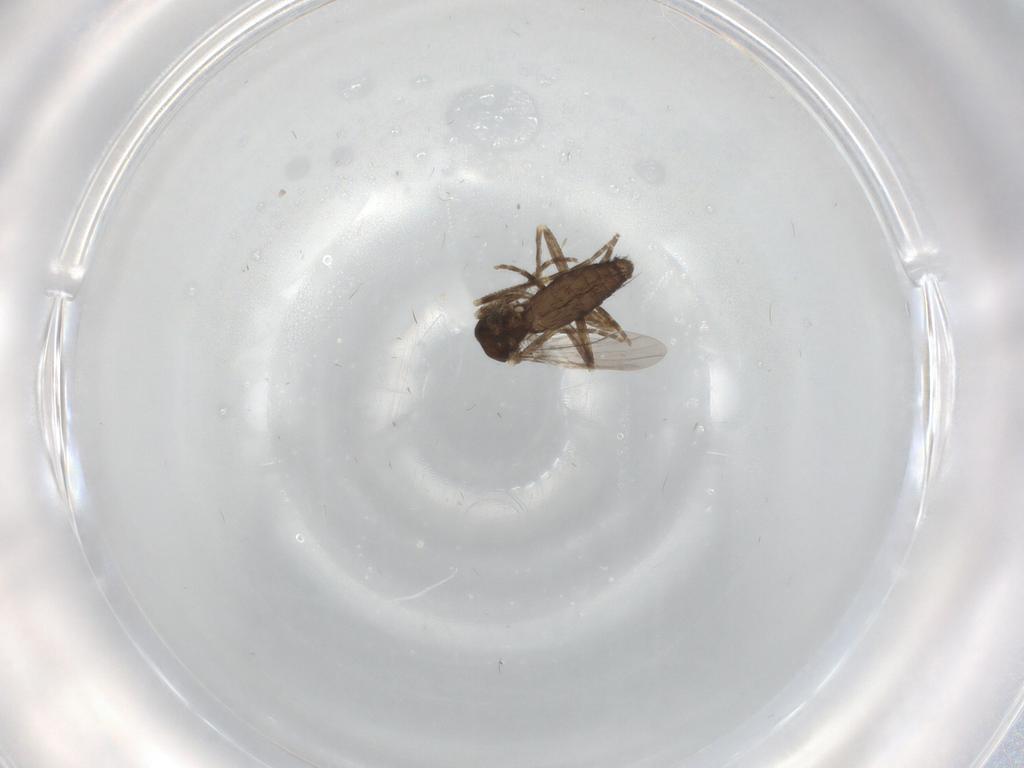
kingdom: Animalia
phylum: Arthropoda
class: Insecta
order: Diptera
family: Ceratopogonidae
